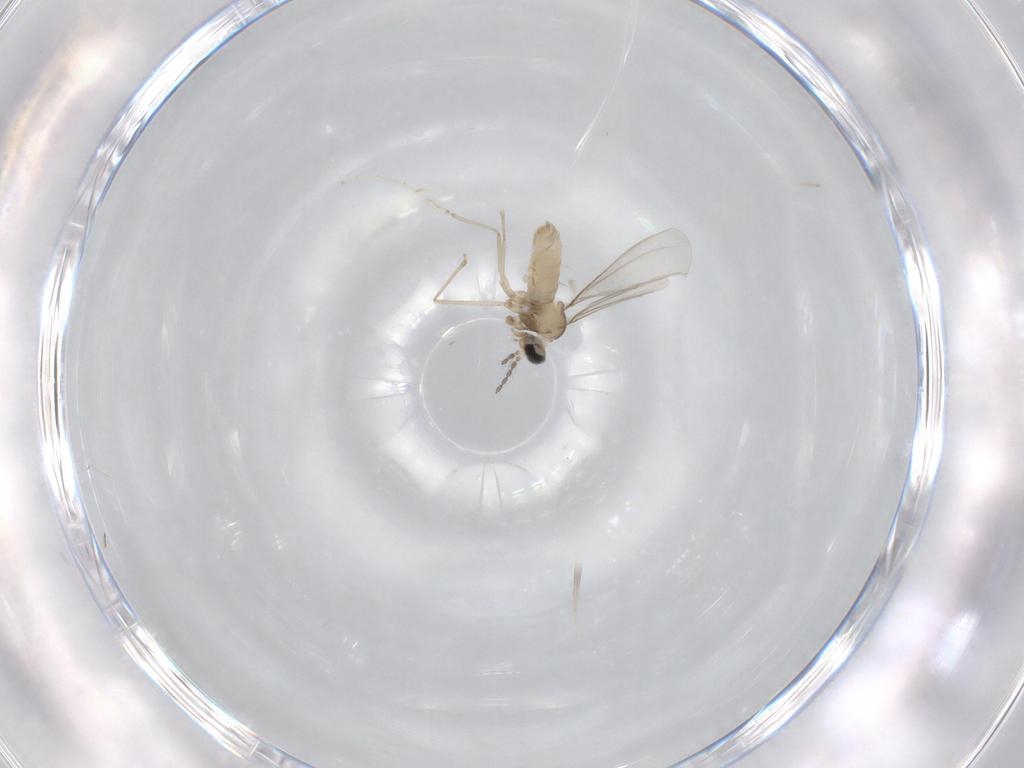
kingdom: Animalia
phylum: Arthropoda
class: Insecta
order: Diptera
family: Cecidomyiidae
